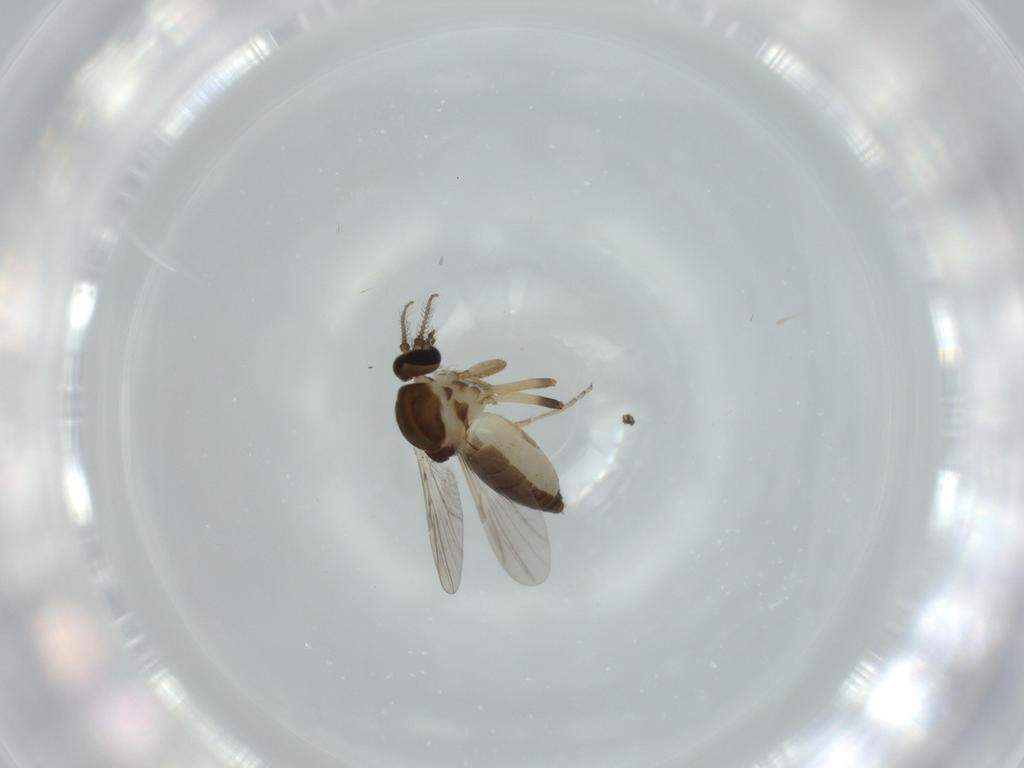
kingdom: Animalia
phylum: Arthropoda
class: Insecta
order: Diptera
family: Ceratopogonidae
